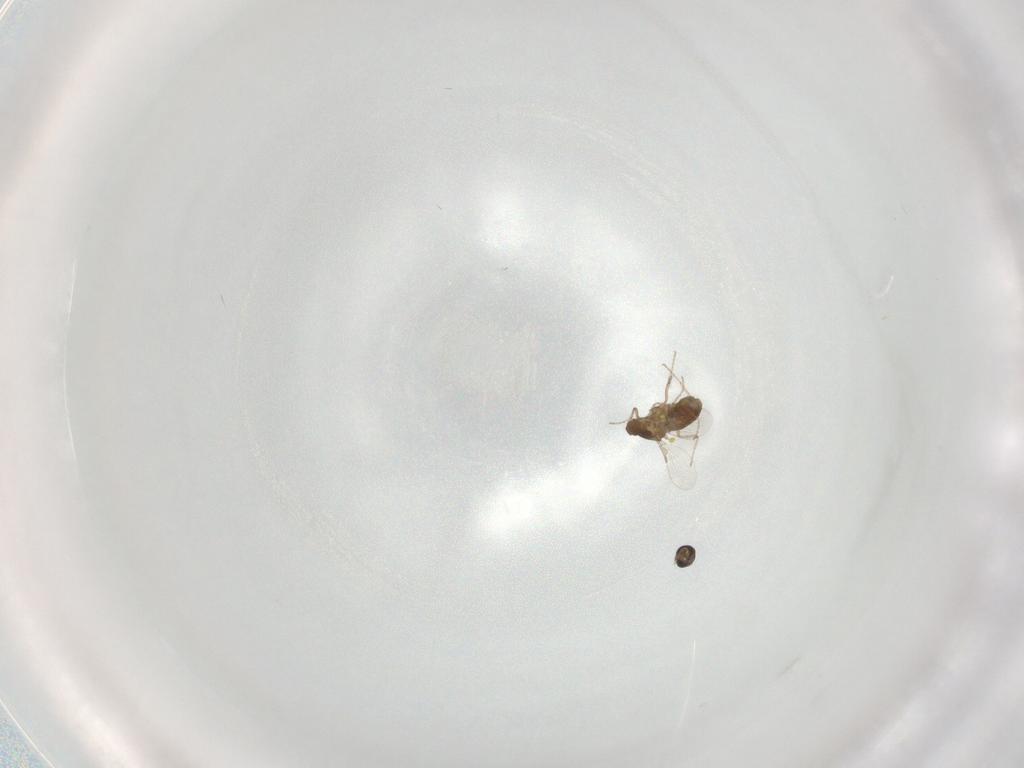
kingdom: Animalia
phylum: Arthropoda
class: Insecta
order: Diptera
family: Ceratopogonidae
